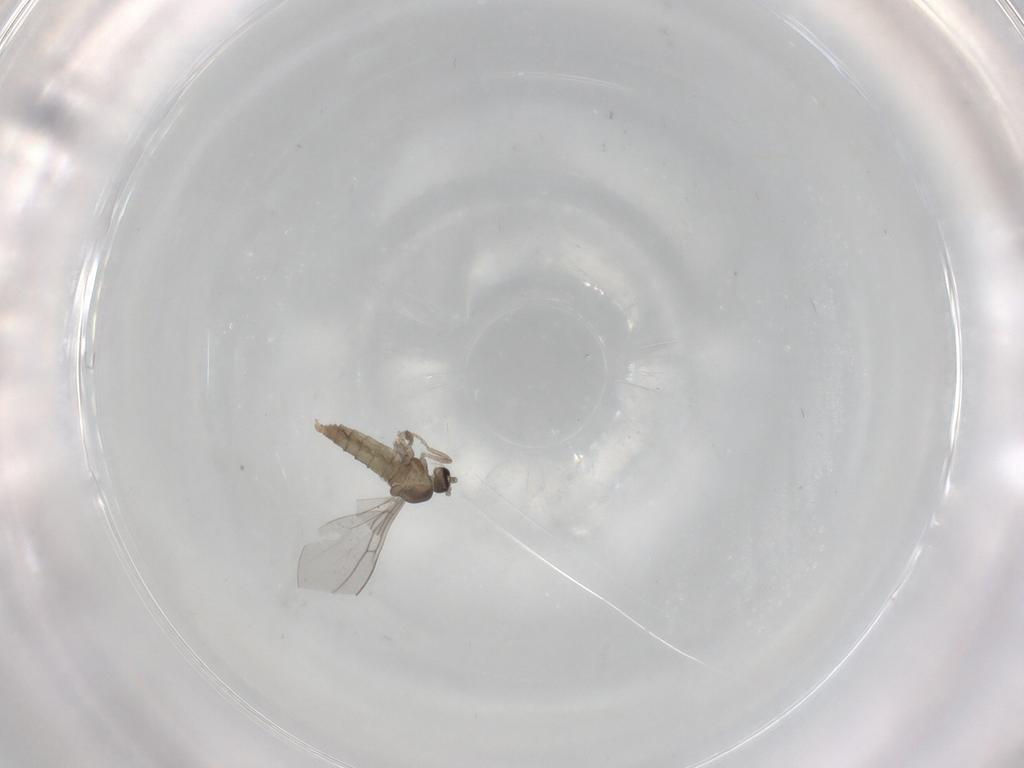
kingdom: Animalia
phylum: Arthropoda
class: Insecta
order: Diptera
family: Cecidomyiidae
